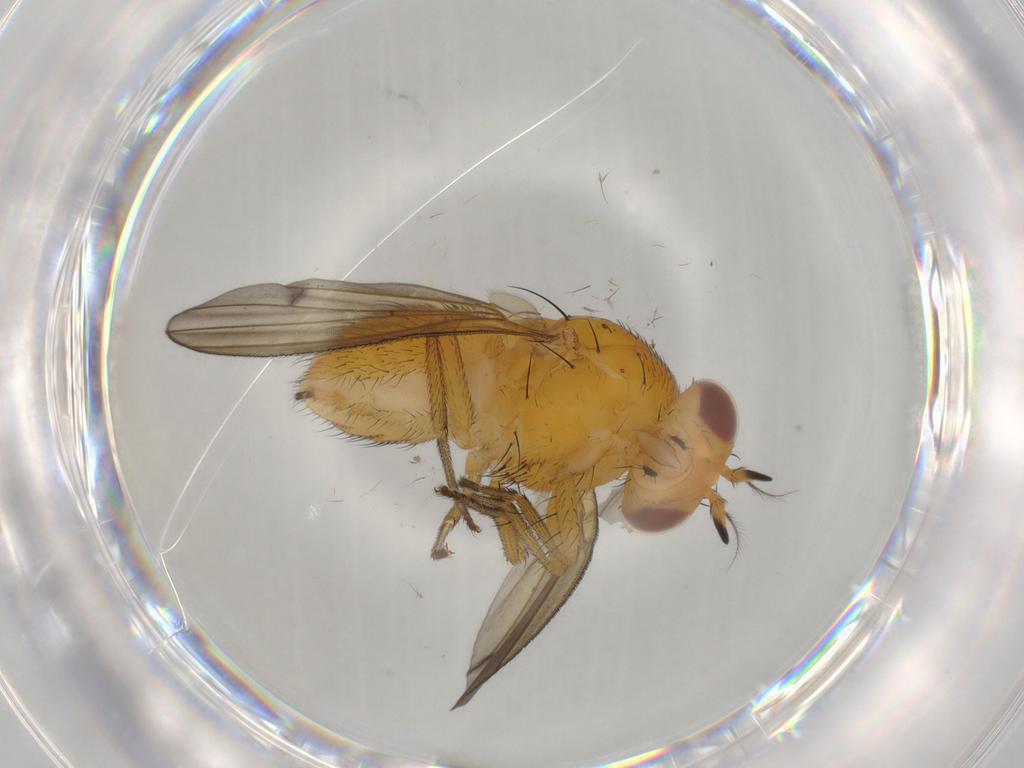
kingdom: Animalia
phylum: Arthropoda
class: Insecta
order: Diptera
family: Lauxaniidae
